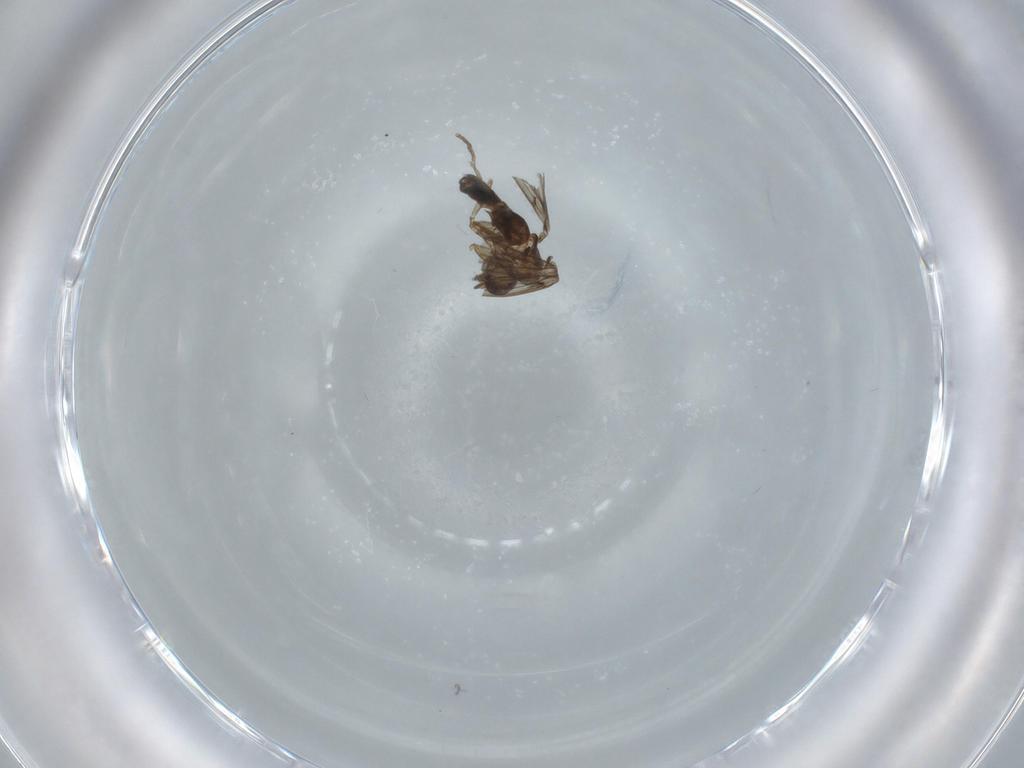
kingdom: Animalia
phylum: Arthropoda
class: Insecta
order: Diptera
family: Psychodidae
